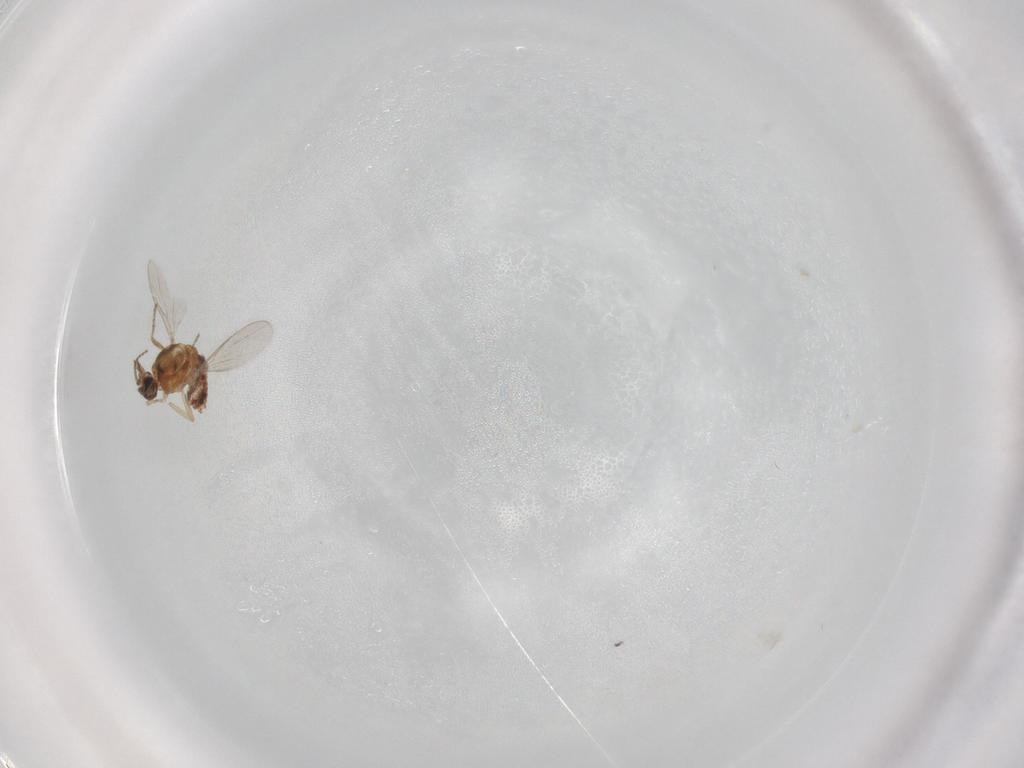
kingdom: Animalia
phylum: Arthropoda
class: Insecta
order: Diptera
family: Ceratopogonidae
